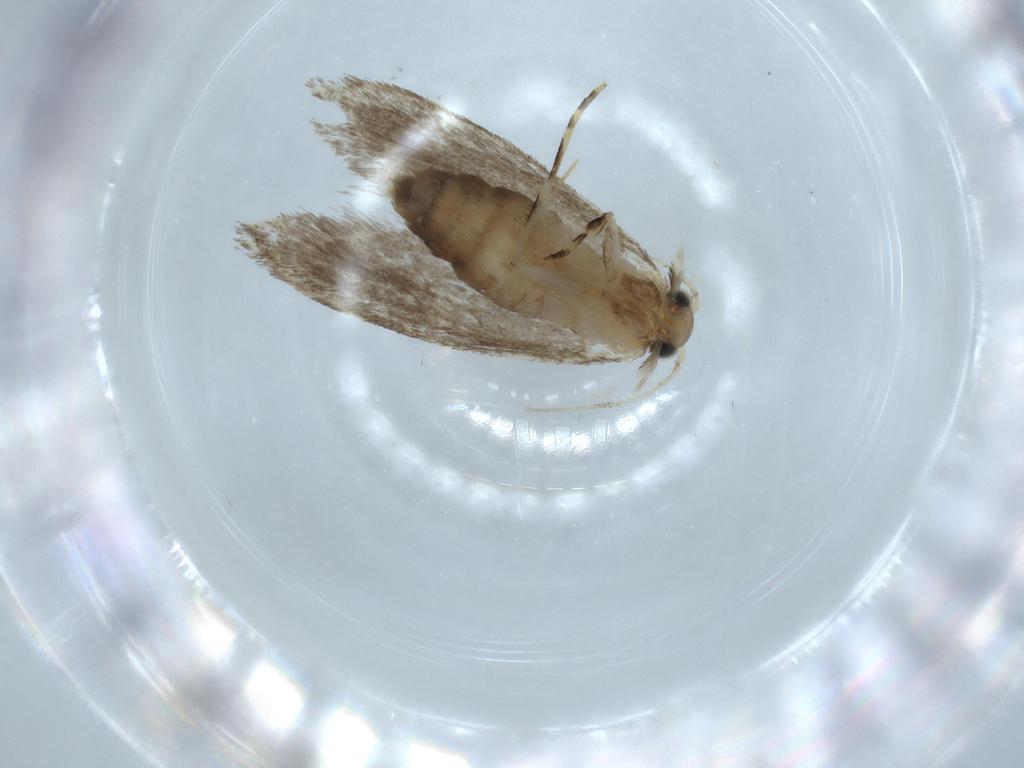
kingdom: Animalia
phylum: Arthropoda
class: Insecta
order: Lepidoptera
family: Tineidae
